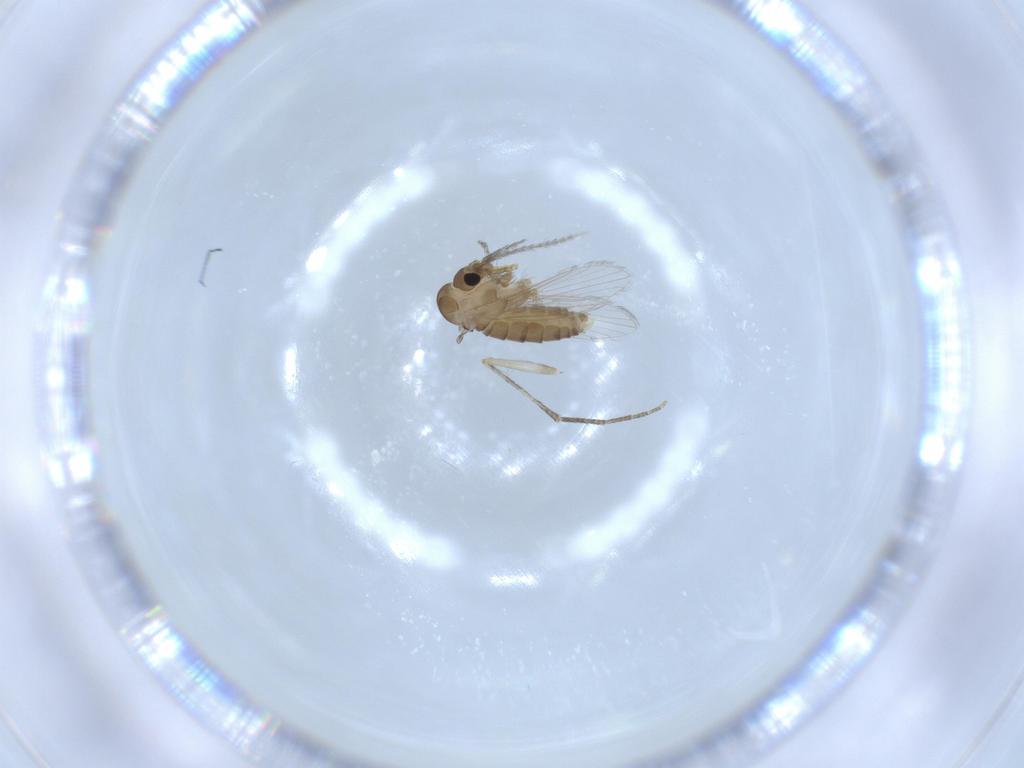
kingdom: Animalia
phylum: Arthropoda
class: Insecta
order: Diptera
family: Psychodidae
